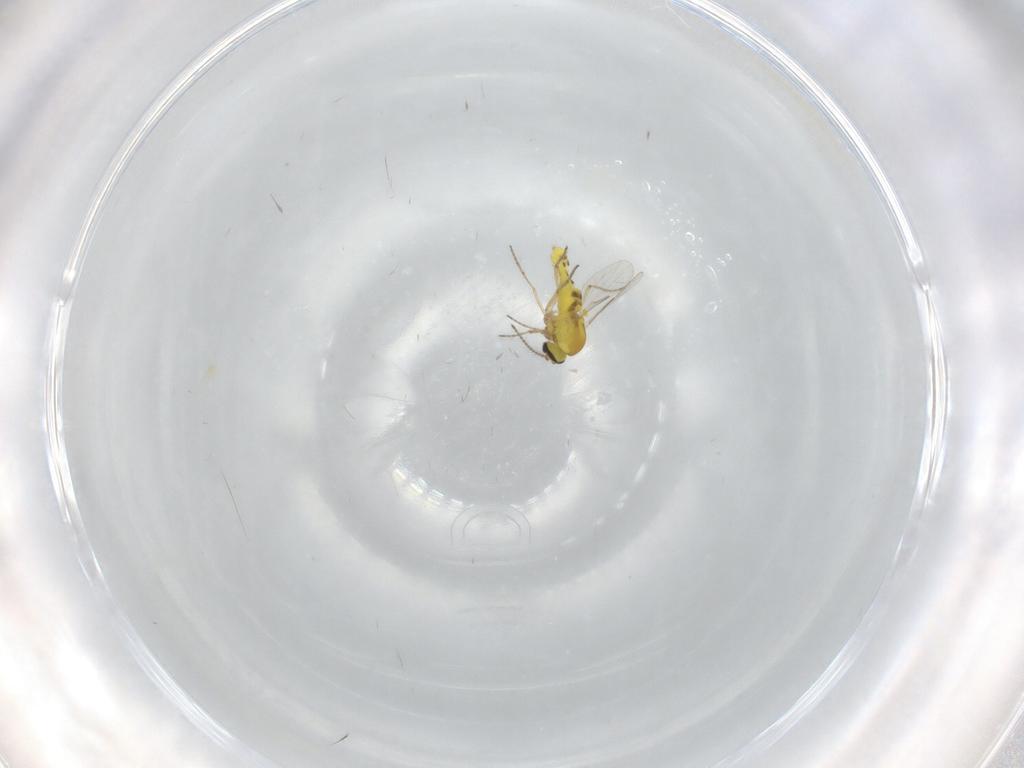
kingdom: Animalia
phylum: Arthropoda
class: Insecta
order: Diptera
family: Ceratopogonidae
